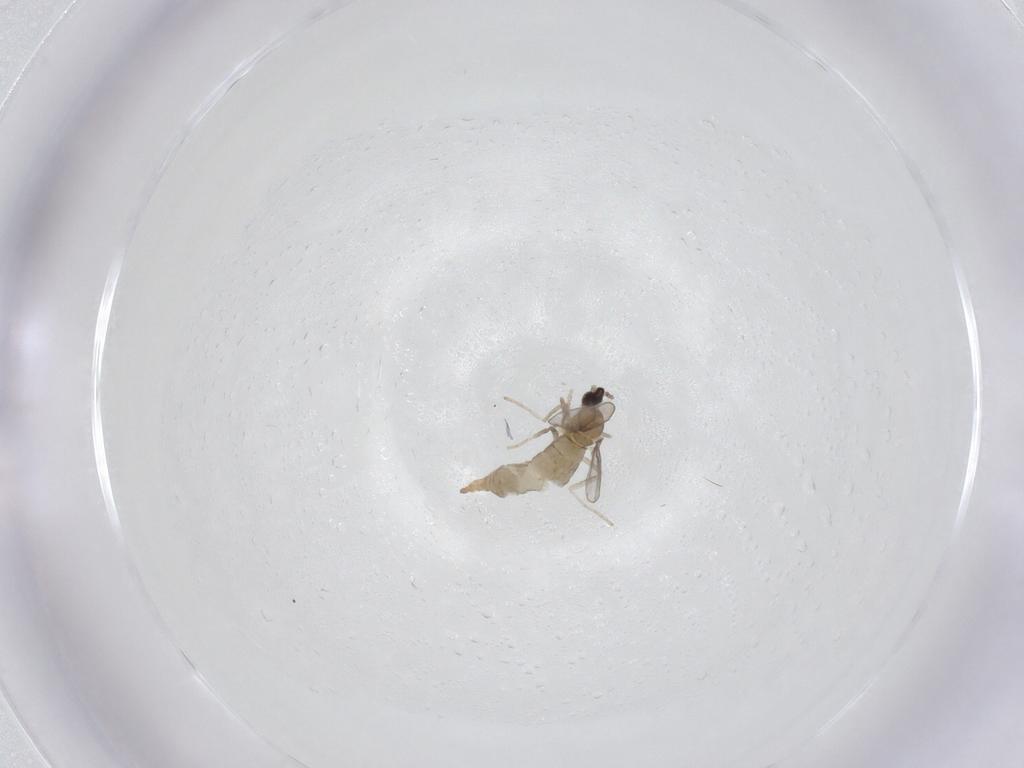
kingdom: Animalia
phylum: Arthropoda
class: Insecta
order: Diptera
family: Cecidomyiidae
